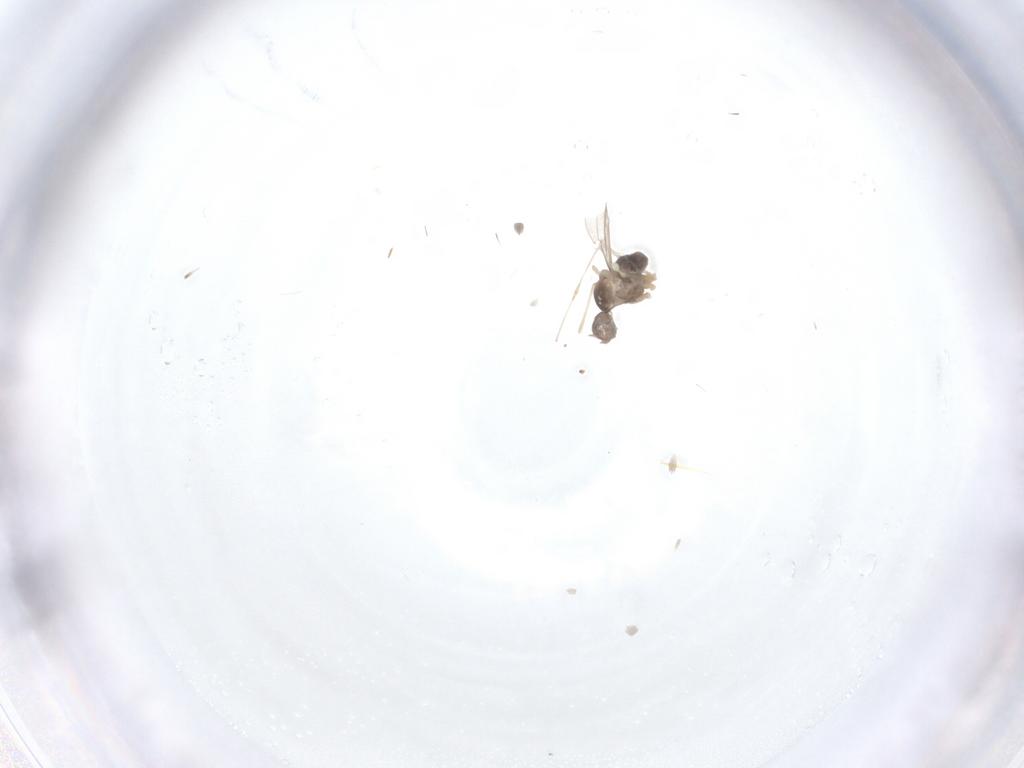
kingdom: Animalia
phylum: Arthropoda
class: Insecta
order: Diptera
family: Cecidomyiidae
